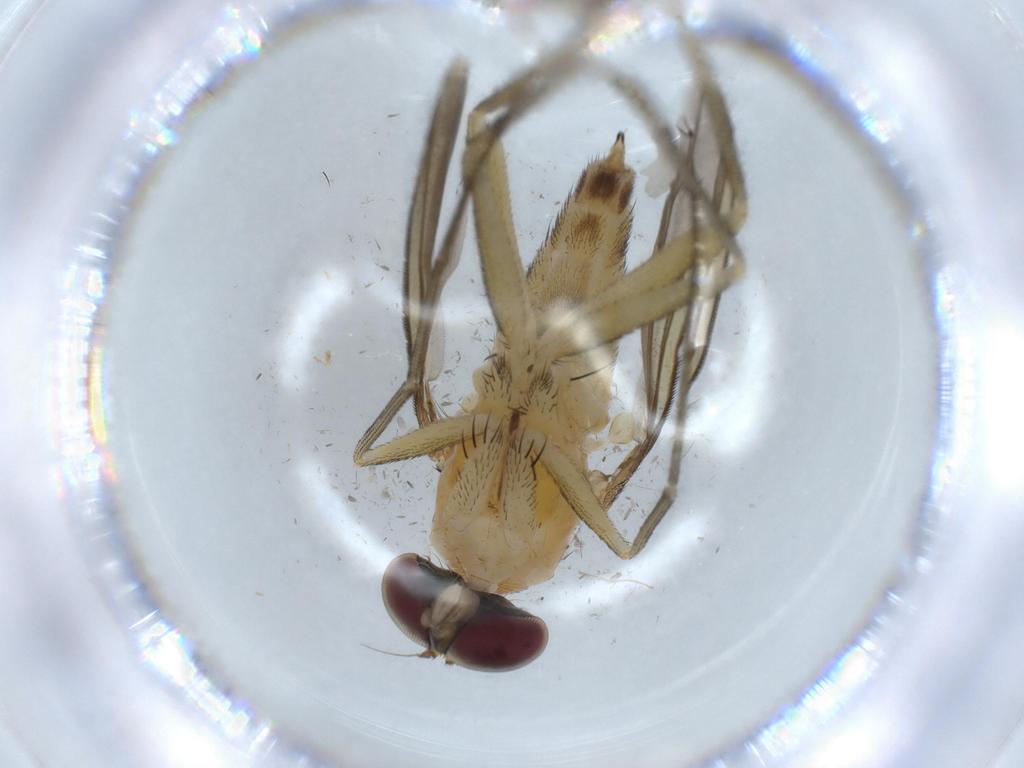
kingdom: Animalia
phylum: Arthropoda
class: Insecta
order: Diptera
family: Dolichopodidae
